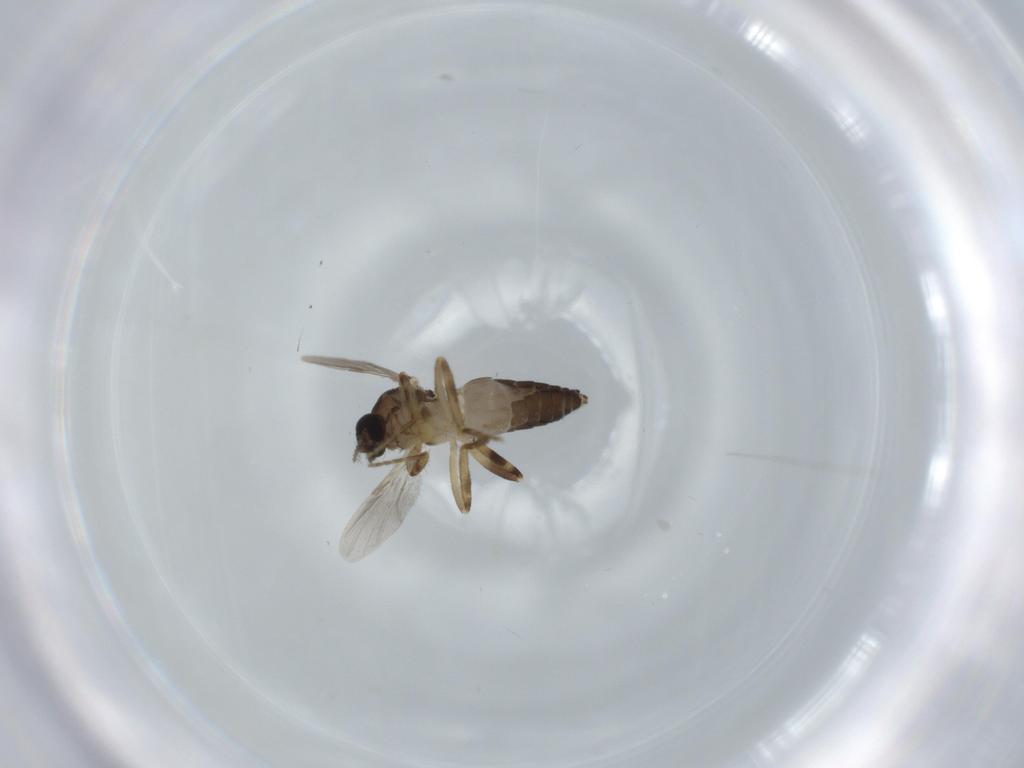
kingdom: Animalia
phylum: Arthropoda
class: Insecta
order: Diptera
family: Ceratopogonidae
